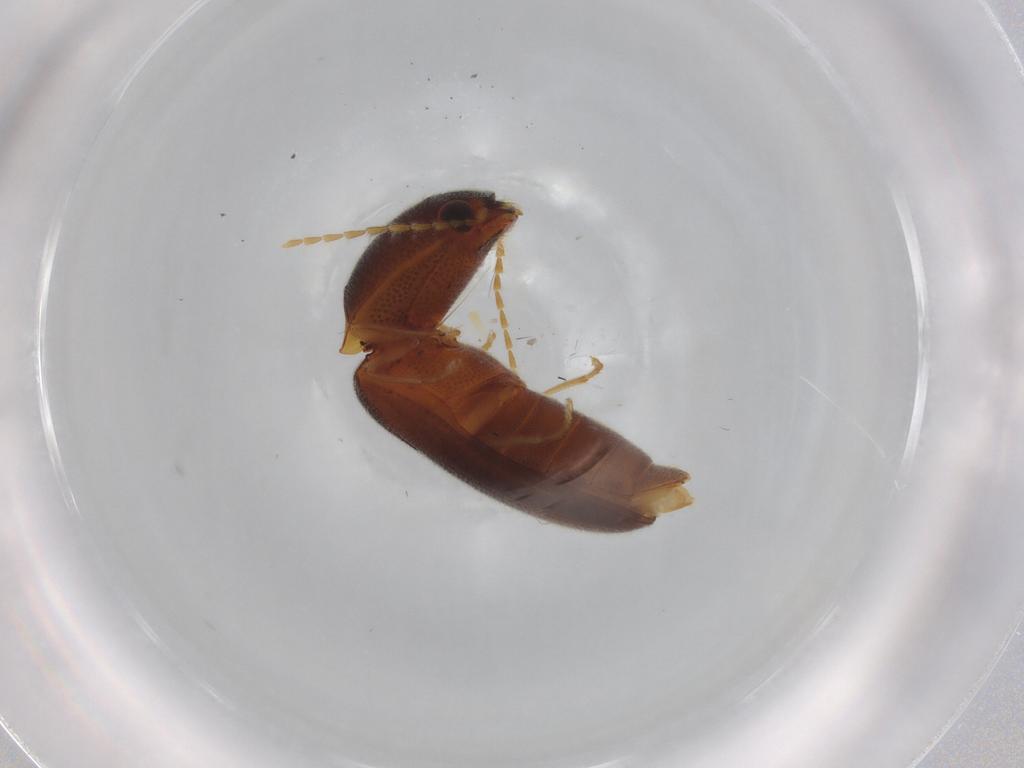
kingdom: Animalia
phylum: Arthropoda
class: Insecta
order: Coleoptera
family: Elateridae
